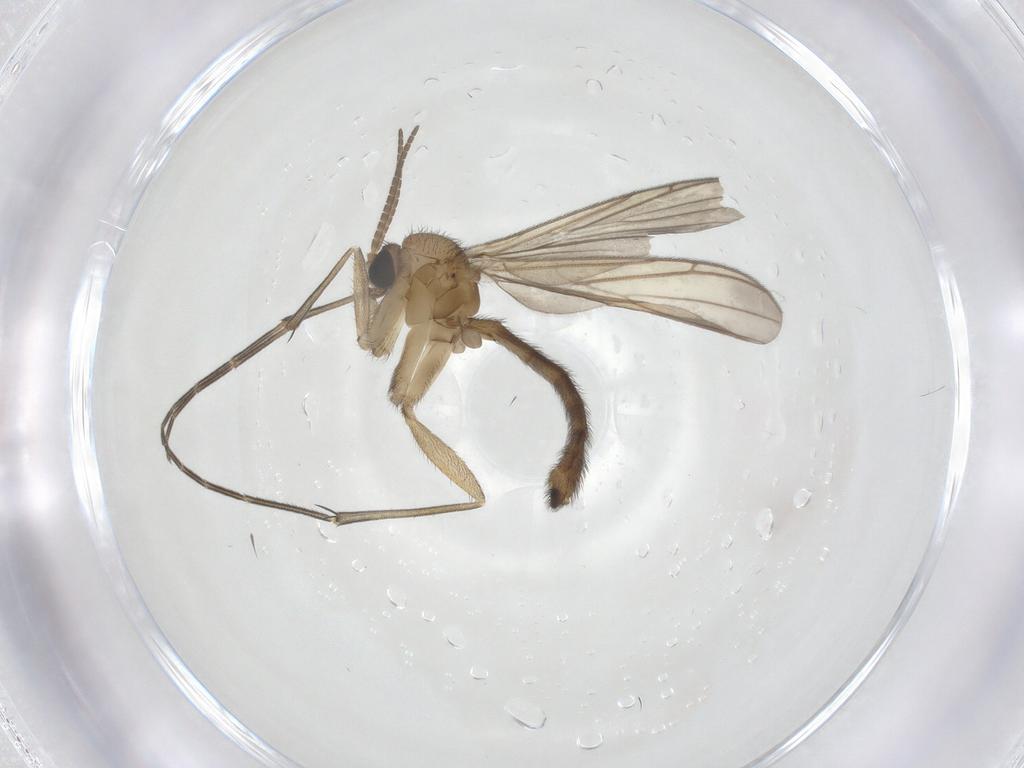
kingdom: Animalia
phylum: Arthropoda
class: Insecta
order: Diptera
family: Keroplatidae
